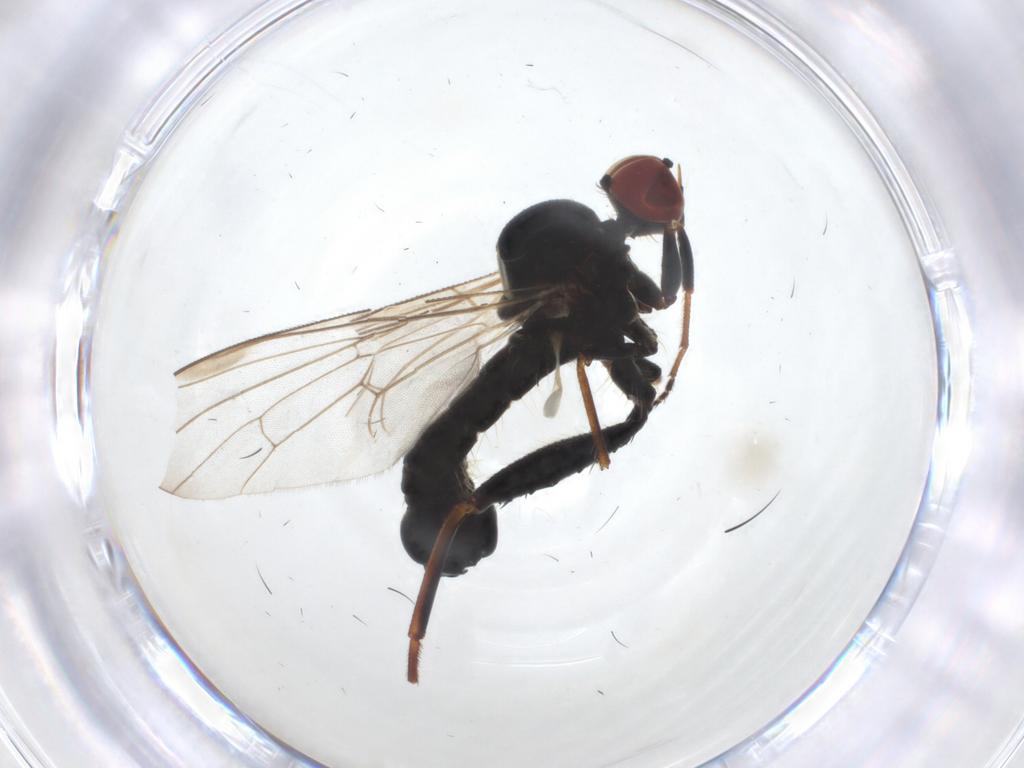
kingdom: Animalia
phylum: Arthropoda
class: Insecta
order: Diptera
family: Hybotidae
